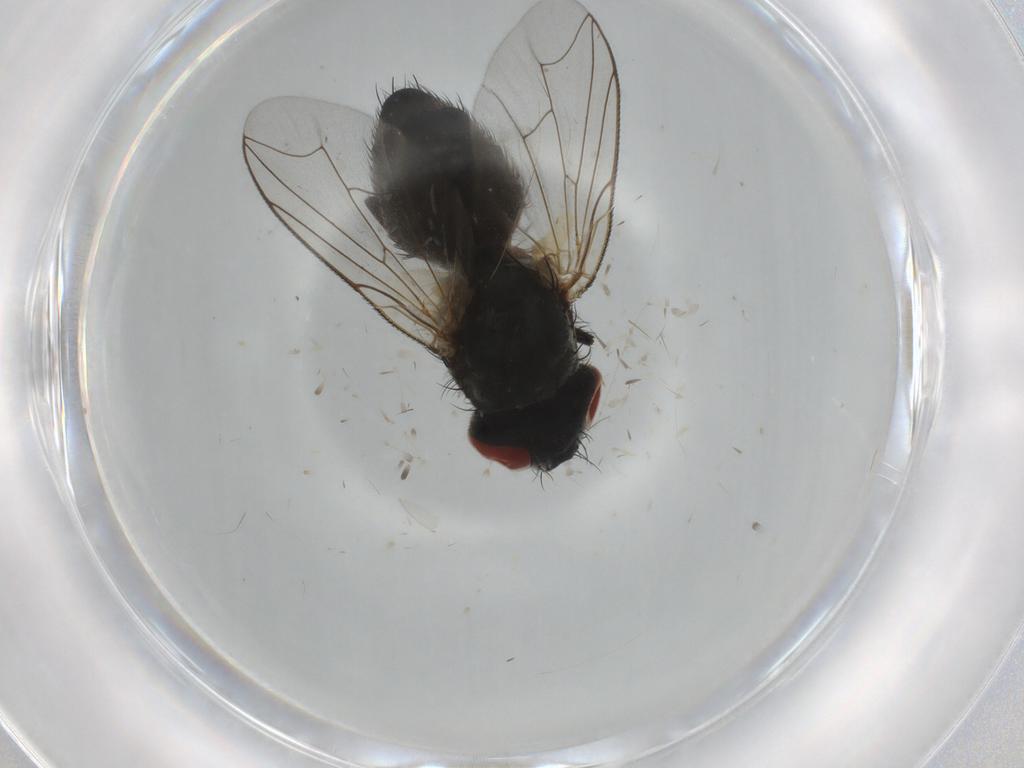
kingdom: Animalia
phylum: Arthropoda
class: Insecta
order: Diptera
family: Sarcophagidae
